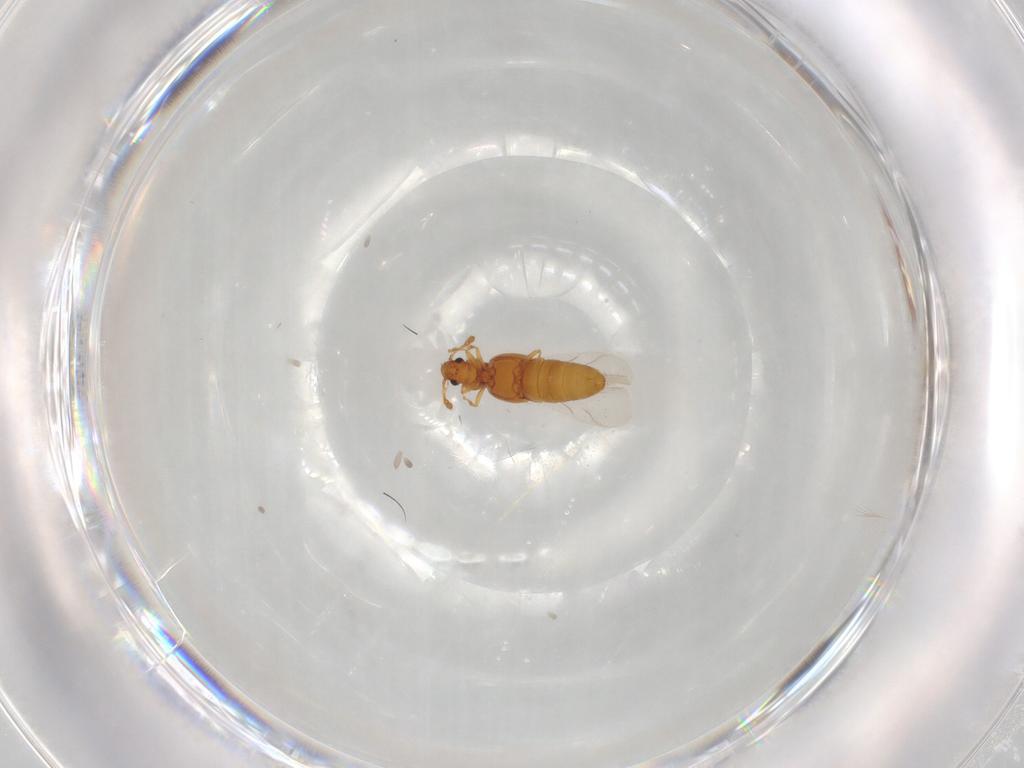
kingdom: Animalia
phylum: Arthropoda
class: Insecta
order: Coleoptera
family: Staphylinidae
